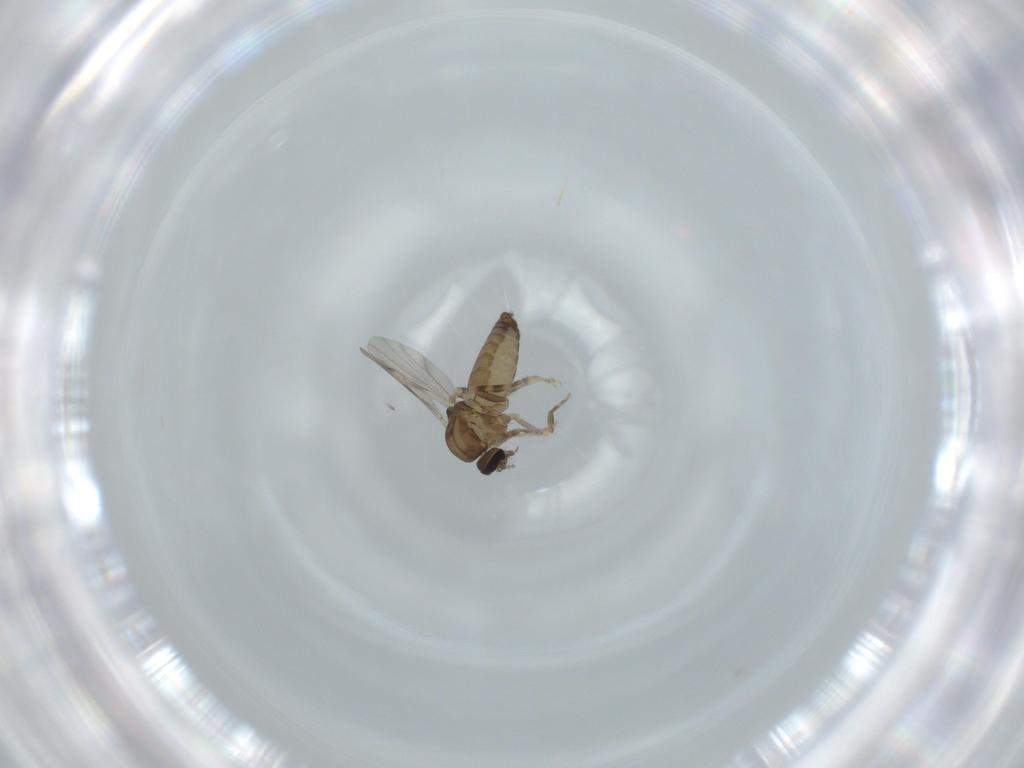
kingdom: Animalia
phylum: Arthropoda
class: Insecta
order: Diptera
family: Ceratopogonidae
